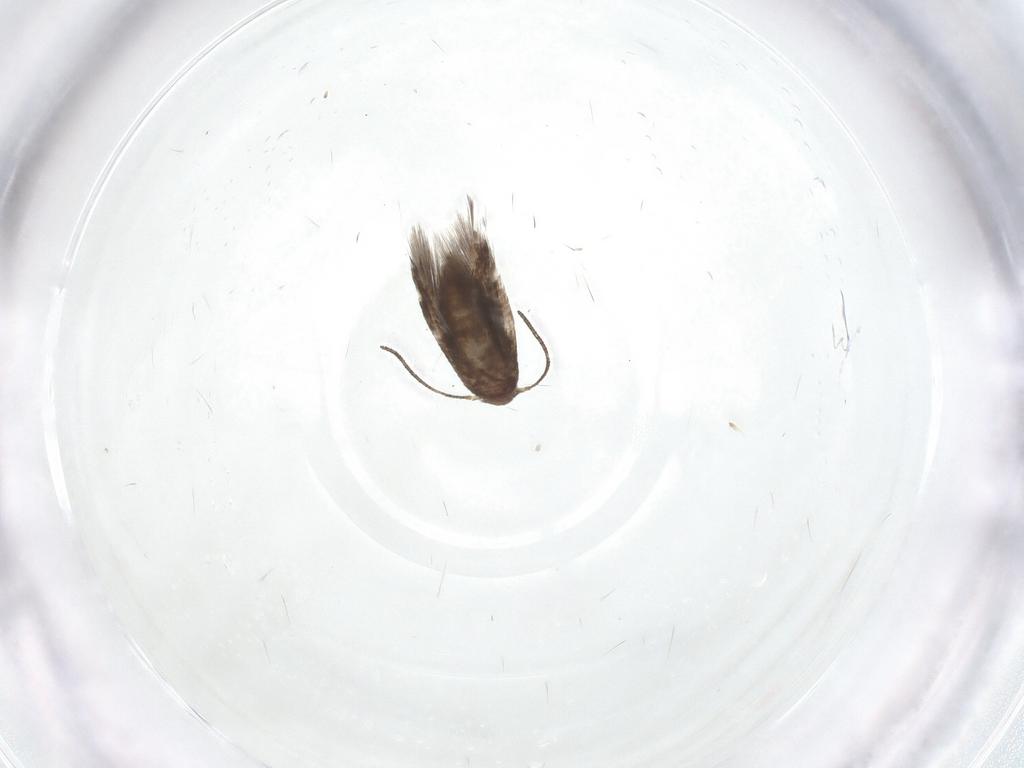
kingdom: Animalia
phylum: Arthropoda
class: Insecta
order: Lepidoptera
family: Lyonetiidae
